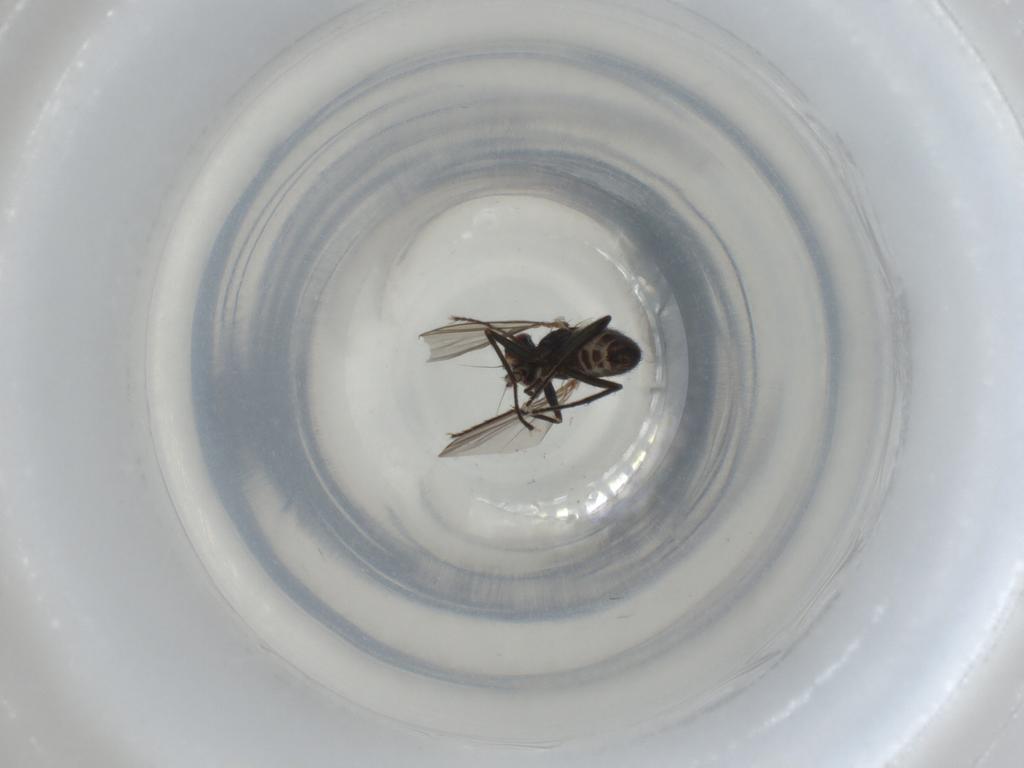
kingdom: Animalia
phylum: Arthropoda
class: Insecta
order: Diptera
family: Dolichopodidae
